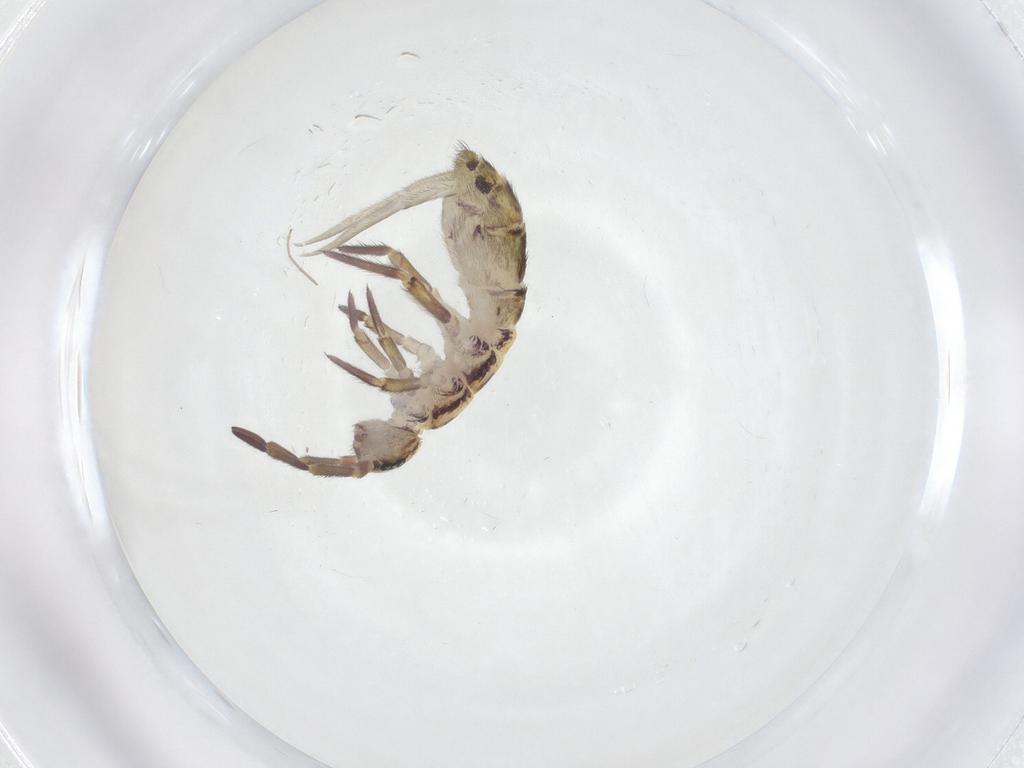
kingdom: Animalia
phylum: Arthropoda
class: Collembola
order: Entomobryomorpha
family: Isotomidae
